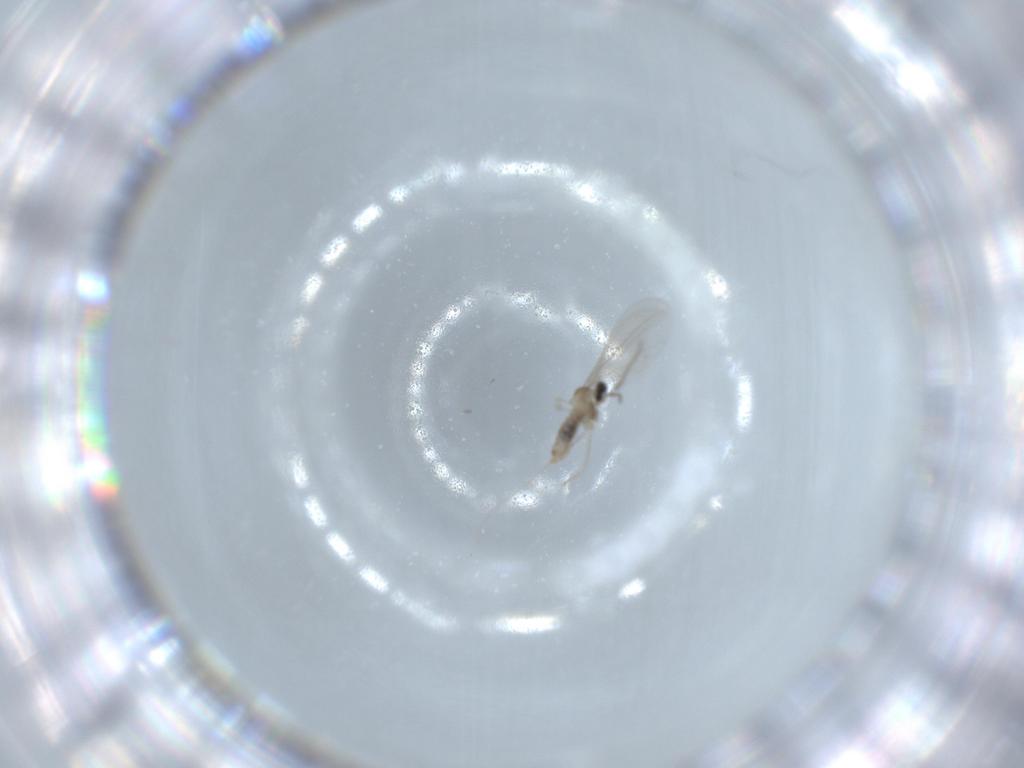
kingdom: Animalia
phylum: Arthropoda
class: Insecta
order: Diptera
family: Cecidomyiidae
